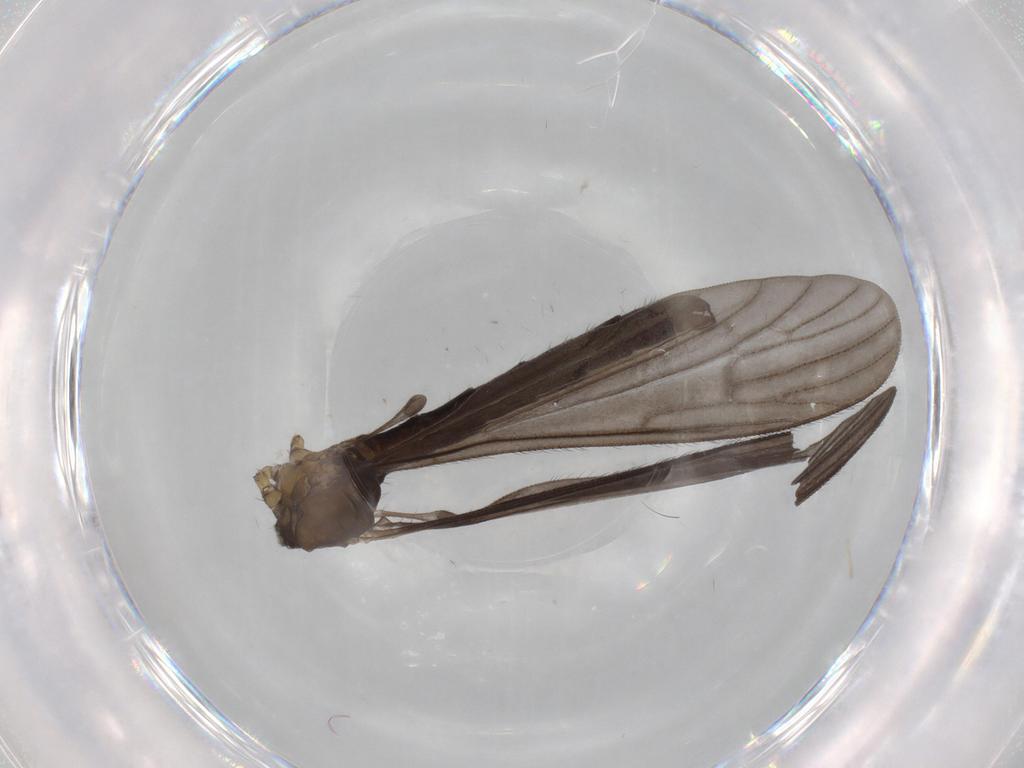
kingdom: Animalia
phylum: Arthropoda
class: Insecta
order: Diptera
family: Limoniidae
